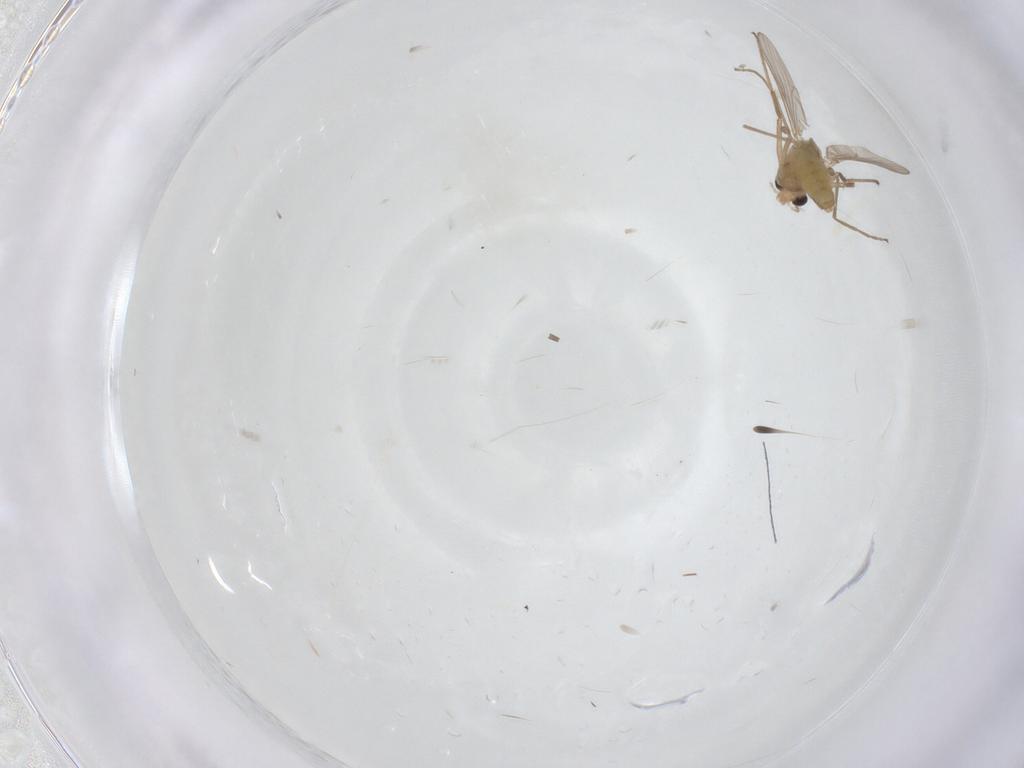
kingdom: Animalia
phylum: Arthropoda
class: Insecta
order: Diptera
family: Chironomidae
